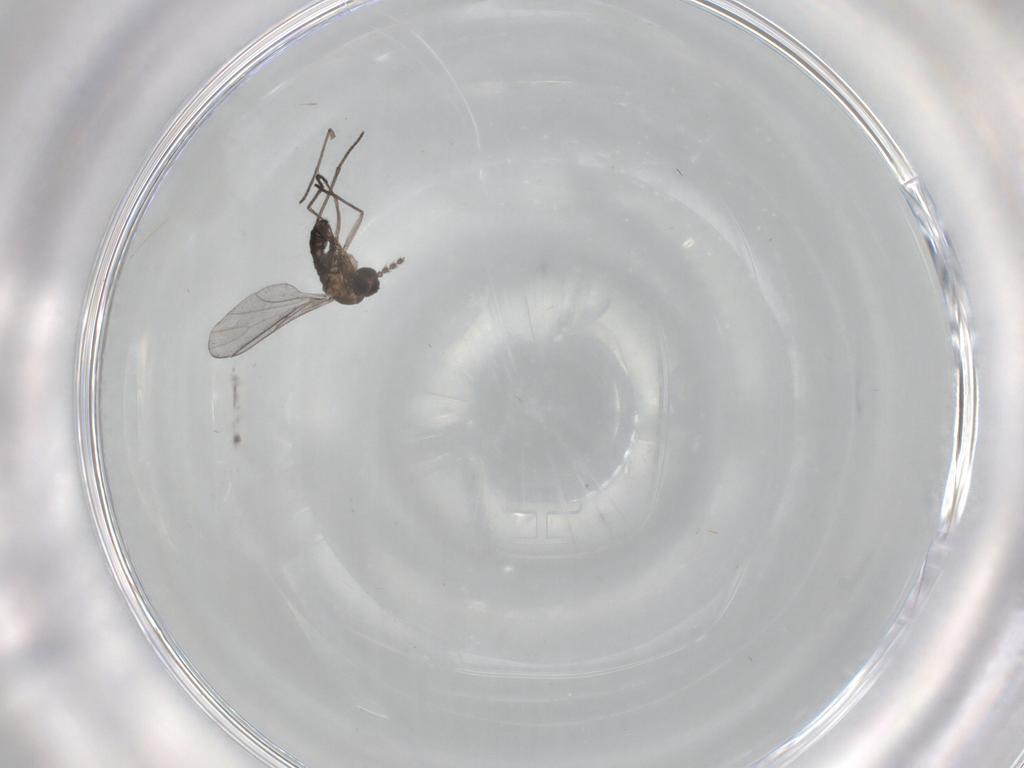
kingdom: Animalia
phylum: Arthropoda
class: Insecta
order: Diptera
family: Sciaridae
